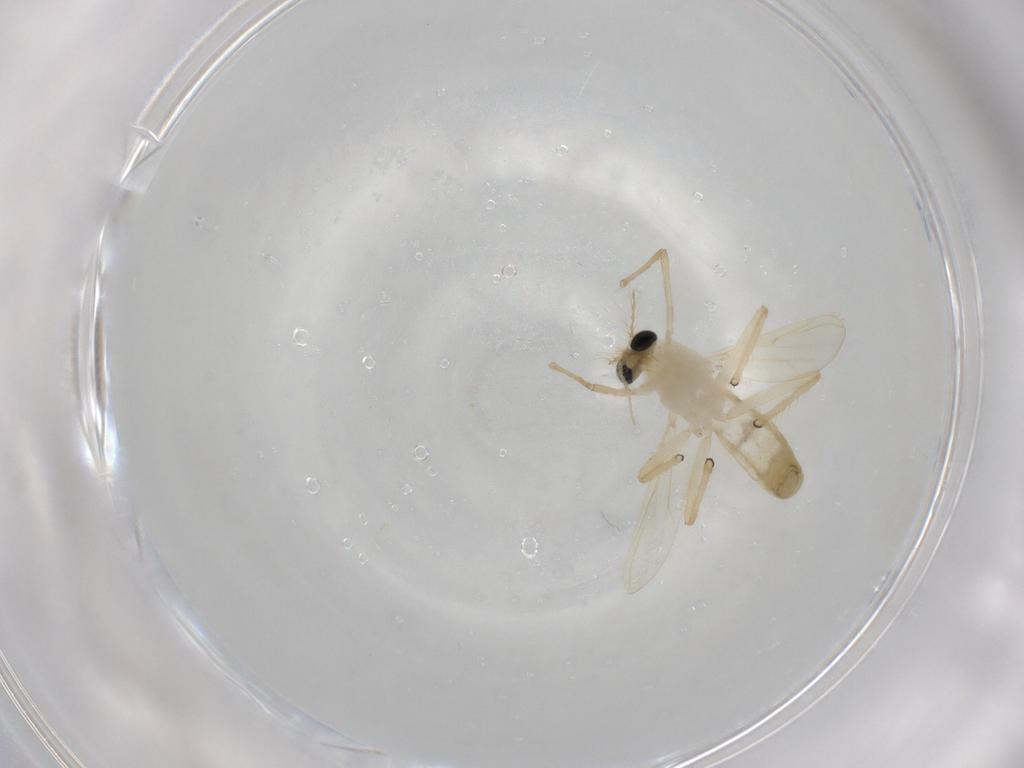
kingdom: Animalia
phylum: Arthropoda
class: Insecta
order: Diptera
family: Chironomidae
